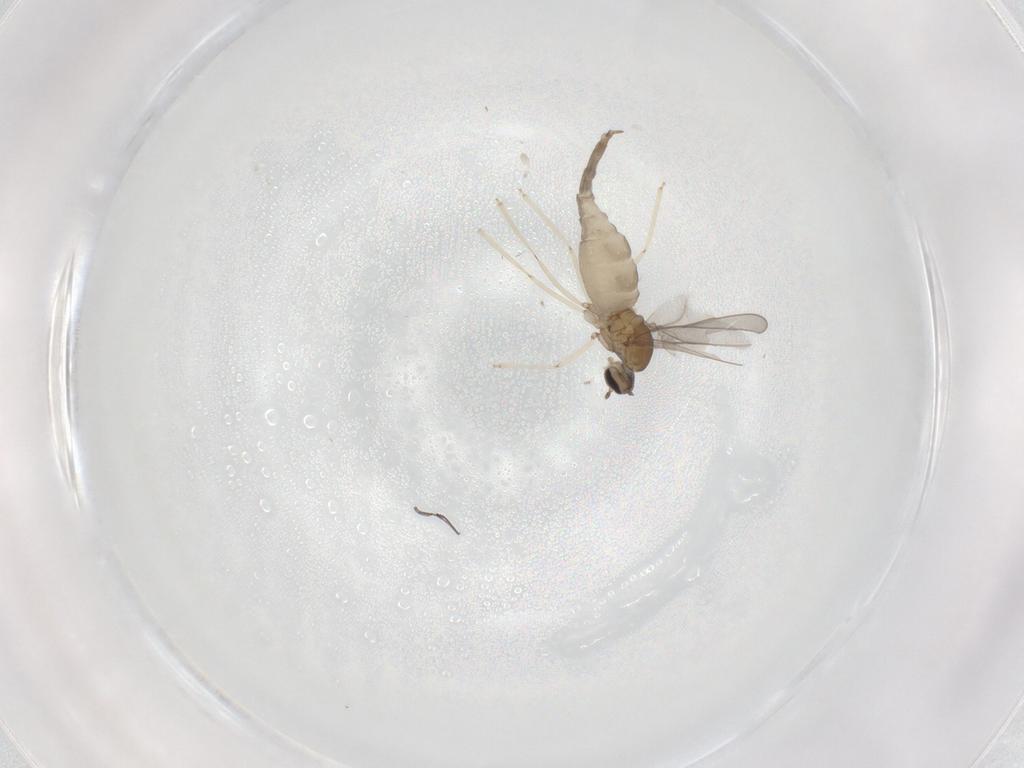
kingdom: Animalia
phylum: Arthropoda
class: Insecta
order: Diptera
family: Cecidomyiidae
